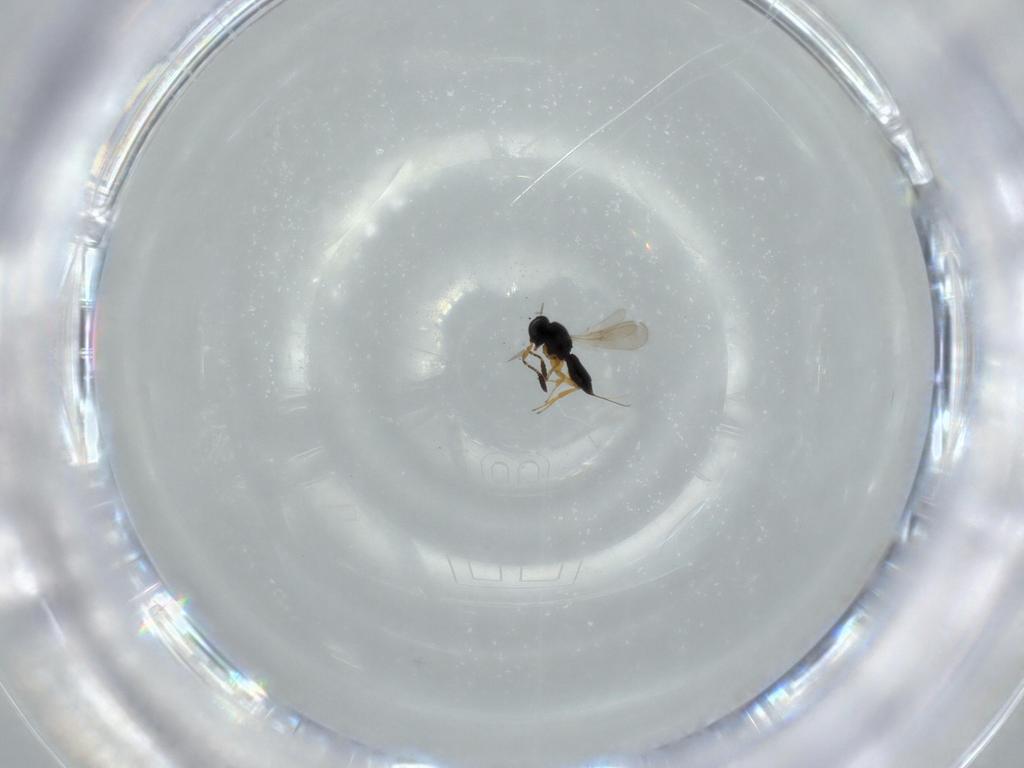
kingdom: Animalia
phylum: Arthropoda
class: Insecta
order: Hymenoptera
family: Scelionidae
